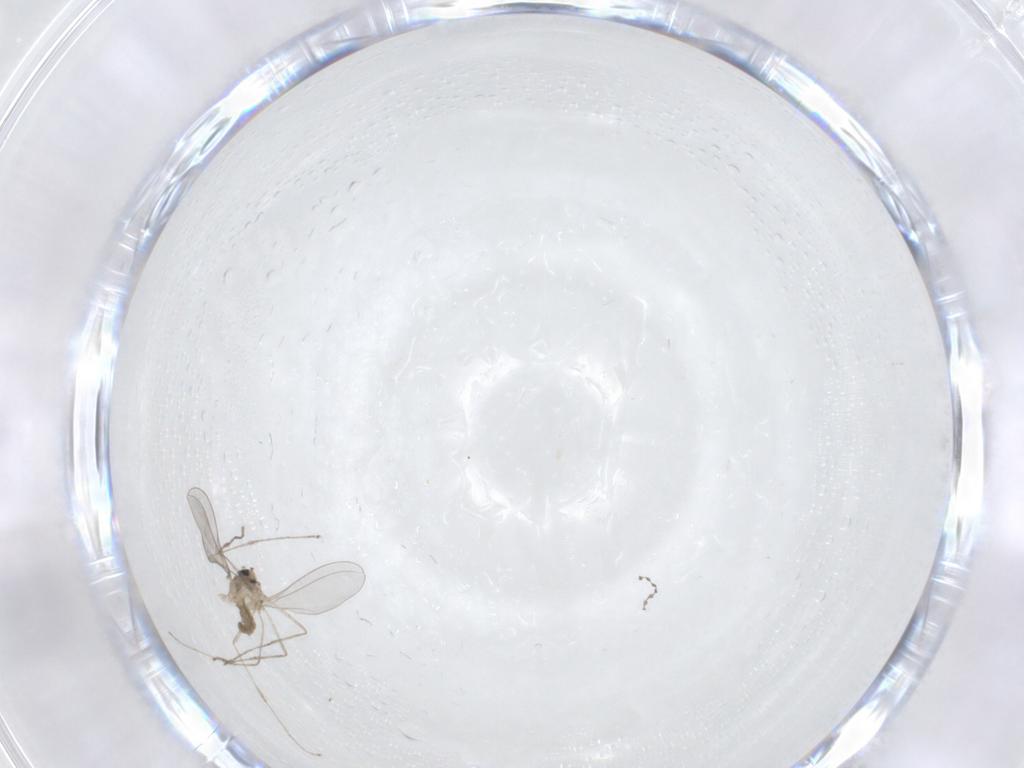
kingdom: Animalia
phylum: Arthropoda
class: Insecta
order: Diptera
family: Cecidomyiidae
